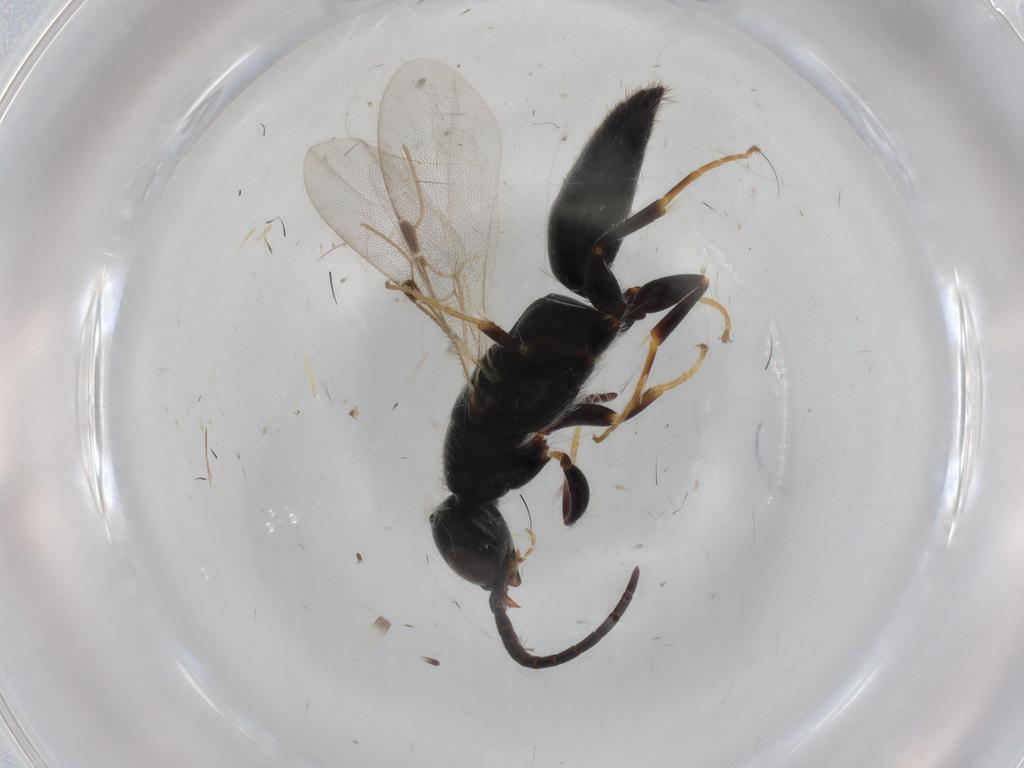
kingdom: Animalia
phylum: Arthropoda
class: Insecta
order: Hymenoptera
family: Bethylidae
